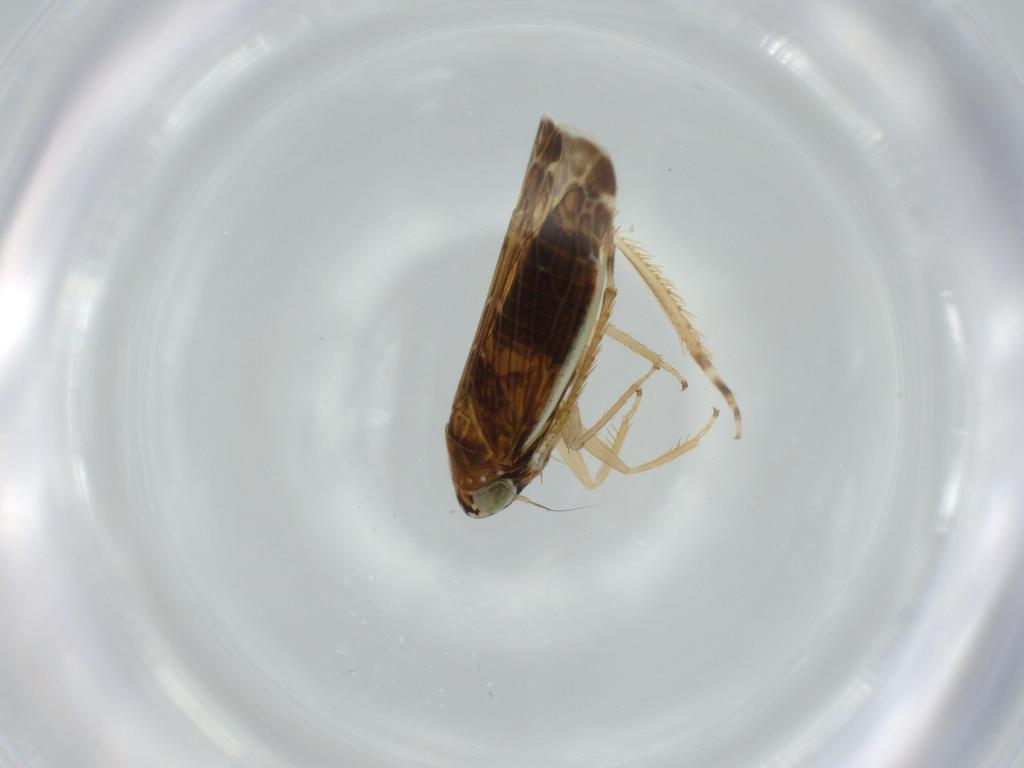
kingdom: Animalia
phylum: Arthropoda
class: Insecta
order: Hemiptera
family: Cicadellidae
